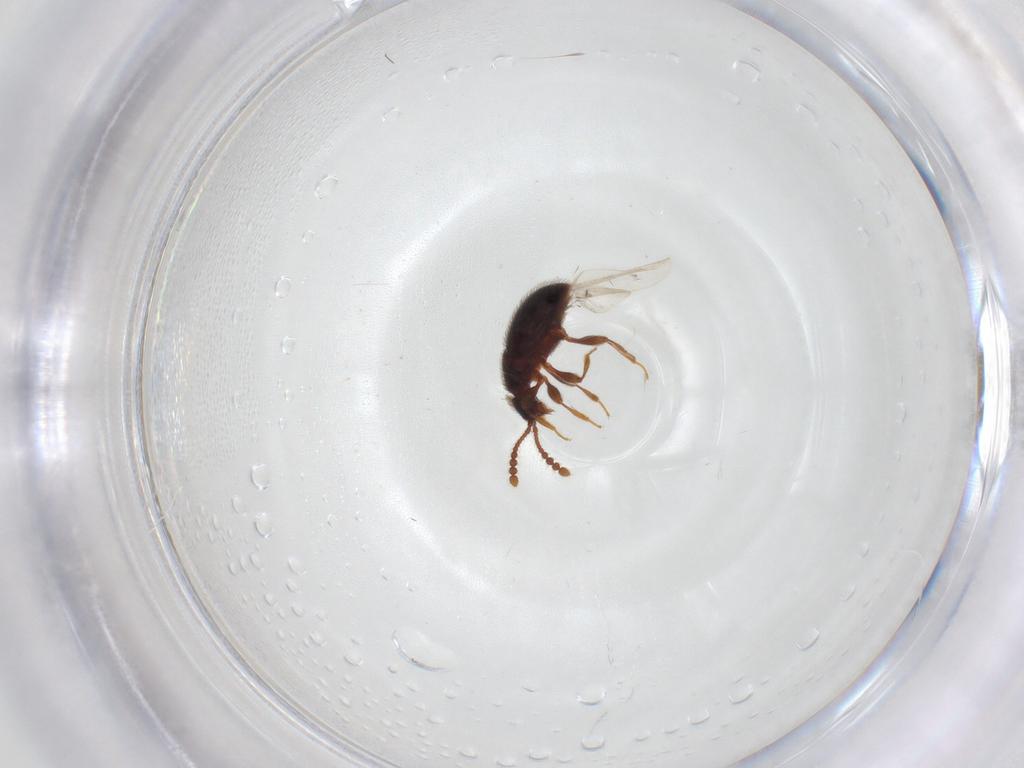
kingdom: Animalia
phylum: Arthropoda
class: Insecta
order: Coleoptera
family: Staphylinidae
